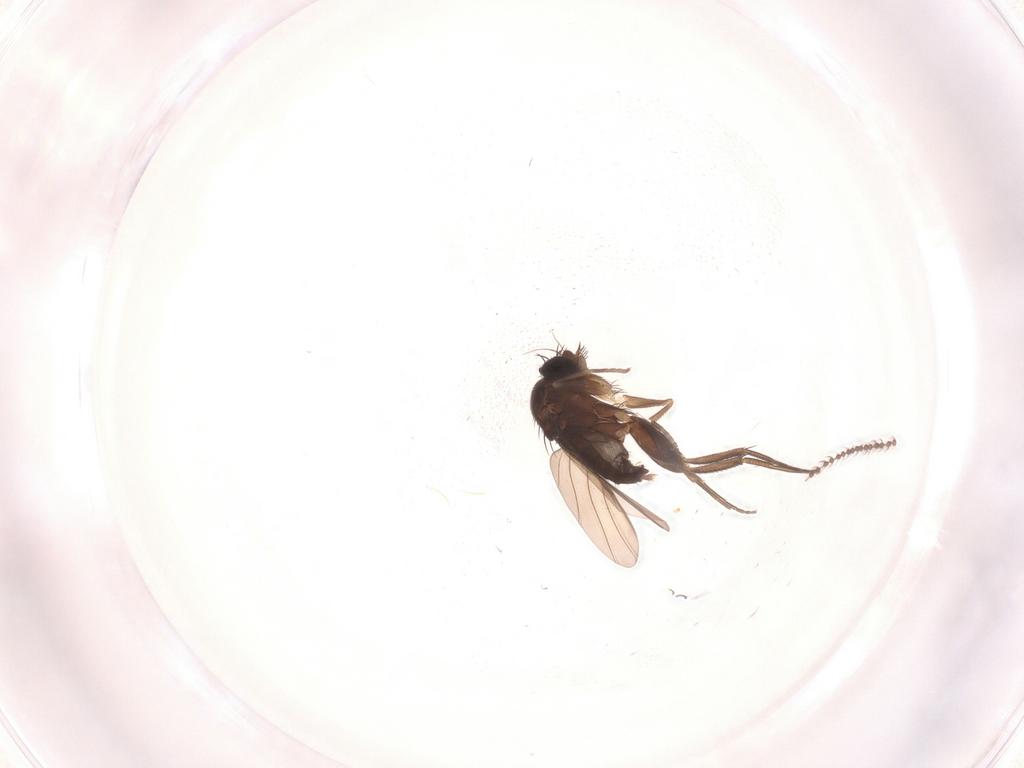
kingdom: Animalia
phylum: Arthropoda
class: Insecta
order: Diptera
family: Phoridae
